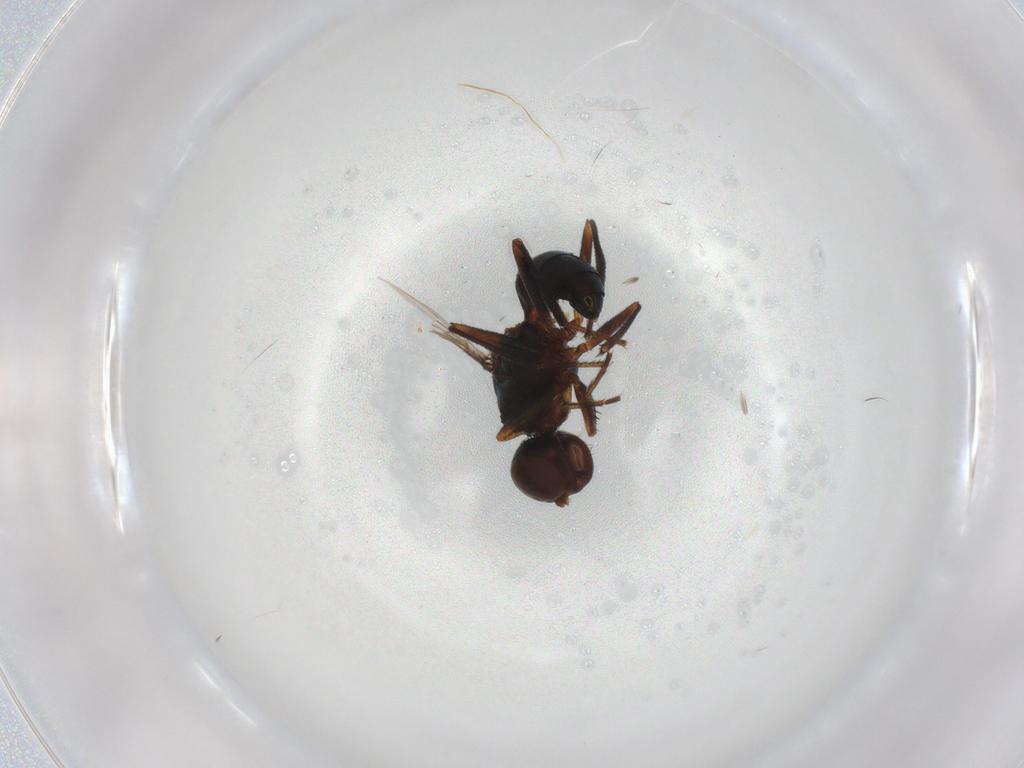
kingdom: Animalia
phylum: Arthropoda
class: Insecta
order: Diptera
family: Sepsidae
